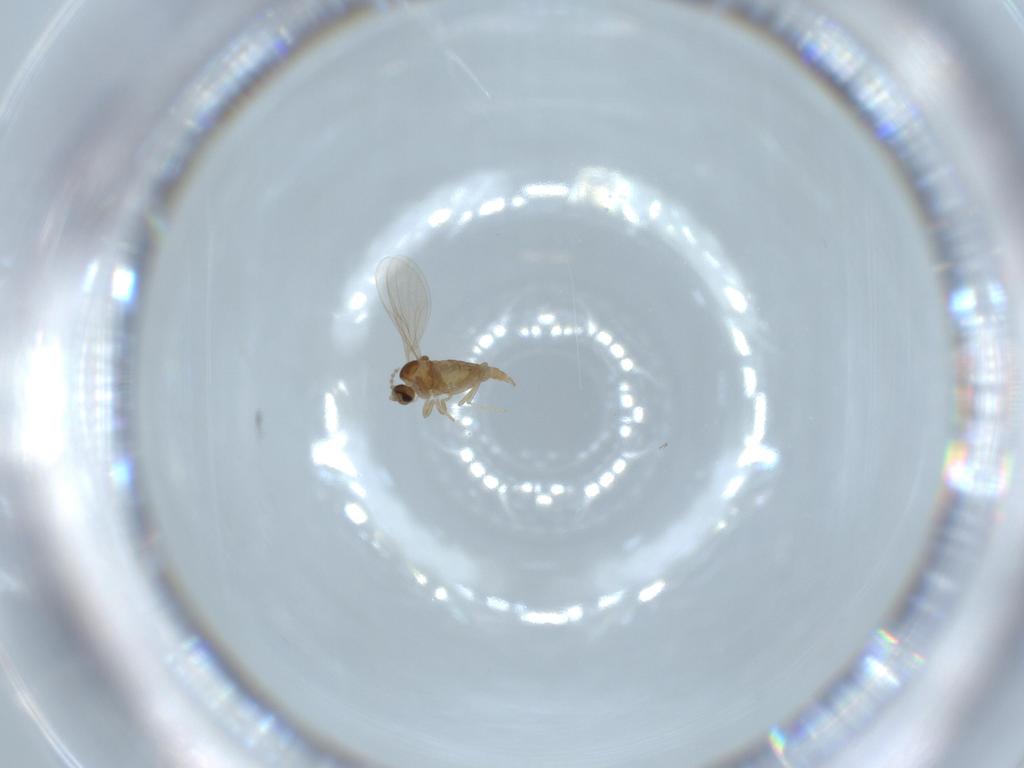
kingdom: Animalia
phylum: Arthropoda
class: Insecta
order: Diptera
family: Cecidomyiidae
